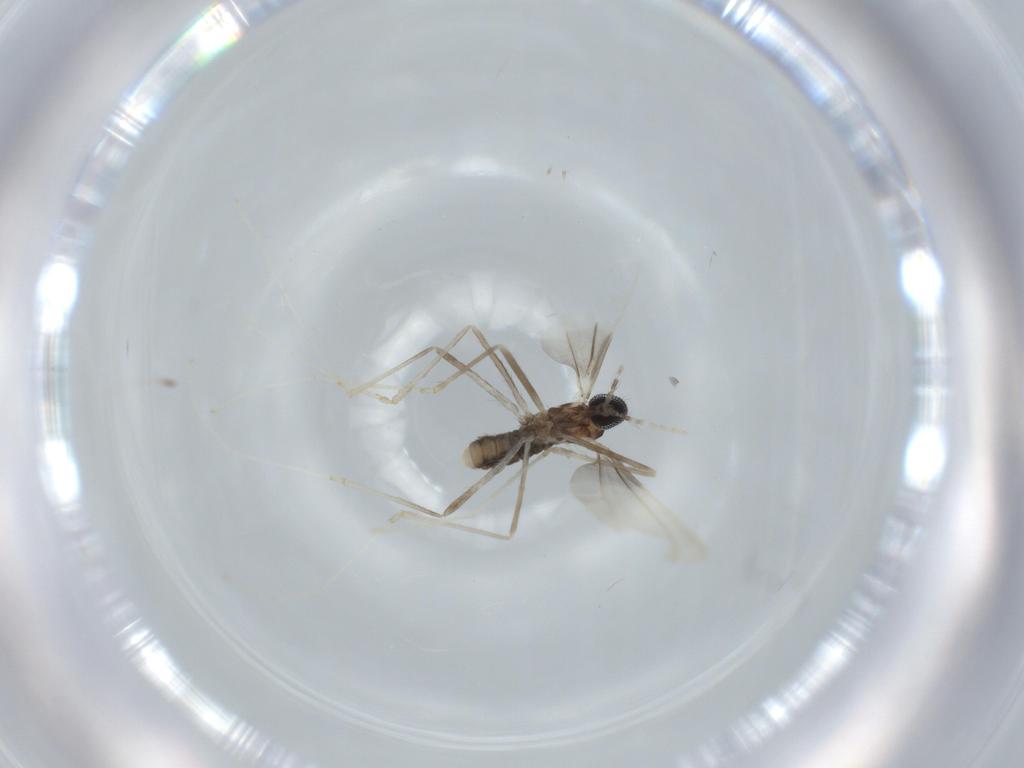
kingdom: Animalia
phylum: Arthropoda
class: Insecta
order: Diptera
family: Cecidomyiidae
